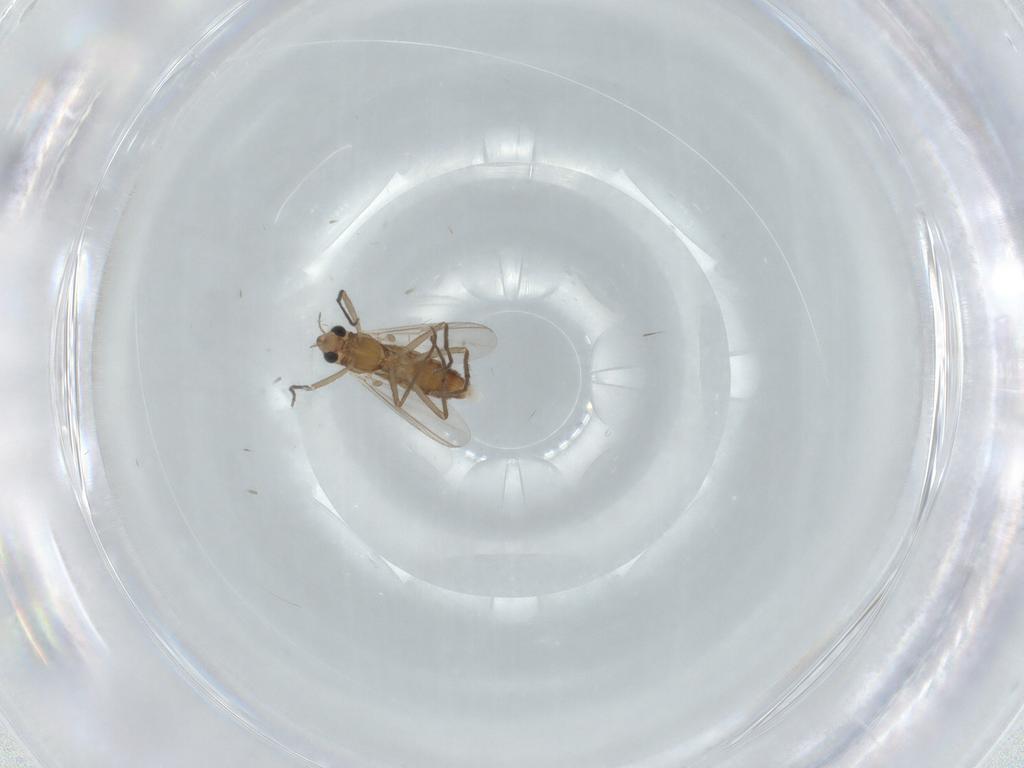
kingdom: Animalia
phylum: Arthropoda
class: Insecta
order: Diptera
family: Chironomidae
